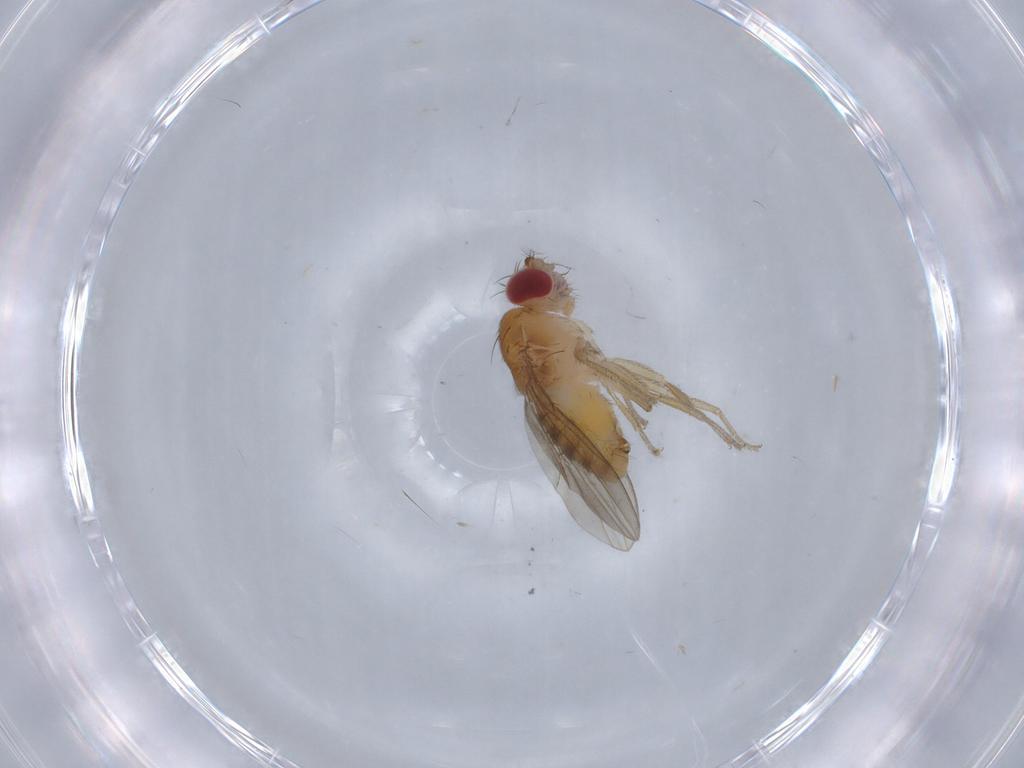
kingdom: Animalia
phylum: Arthropoda
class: Insecta
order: Diptera
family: Drosophilidae
